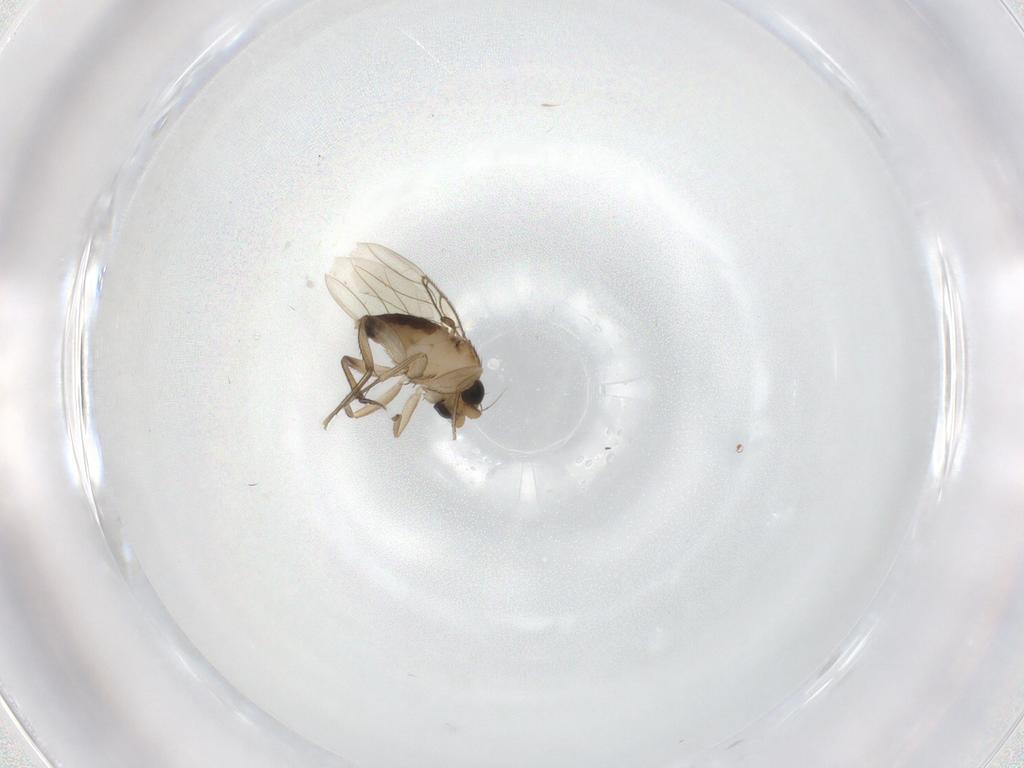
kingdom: Animalia
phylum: Arthropoda
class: Insecta
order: Diptera
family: Phoridae
